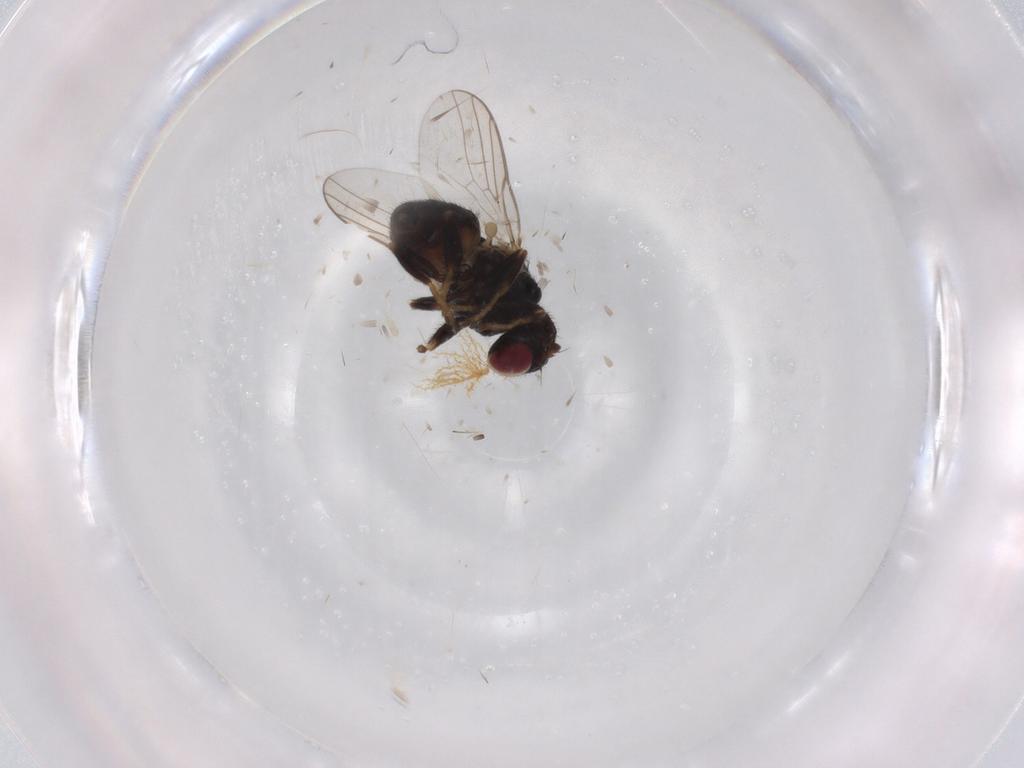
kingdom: Animalia
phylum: Arthropoda
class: Insecta
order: Diptera
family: Chloropidae
